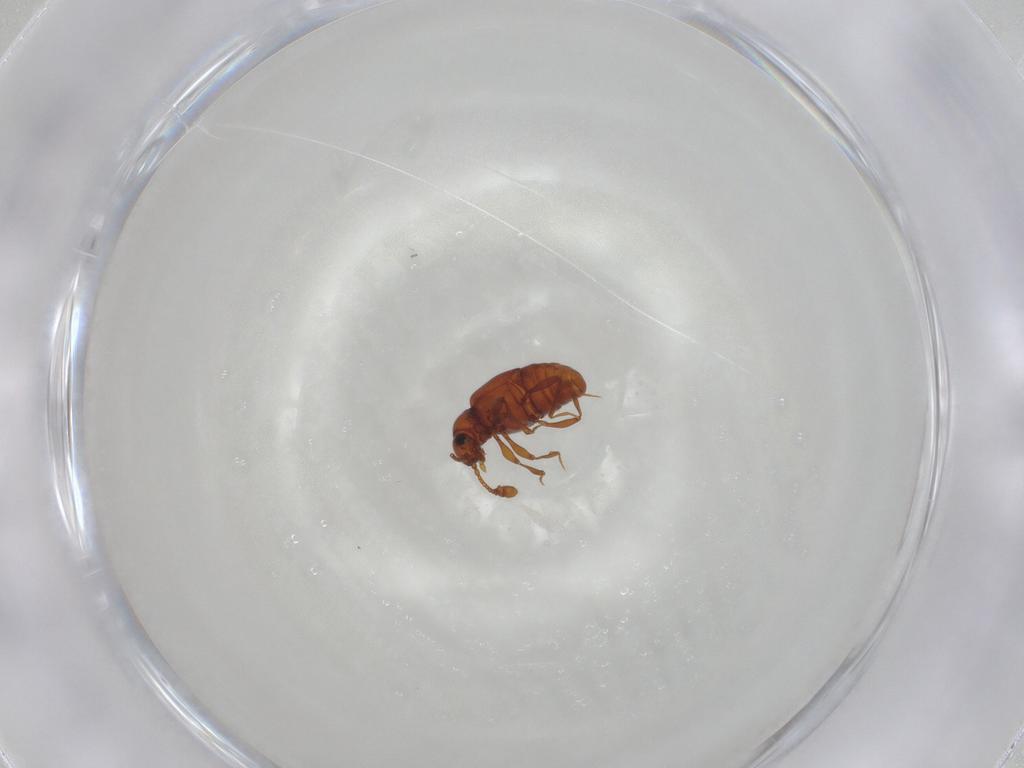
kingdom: Animalia
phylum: Arthropoda
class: Insecta
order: Coleoptera
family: Staphylinidae
